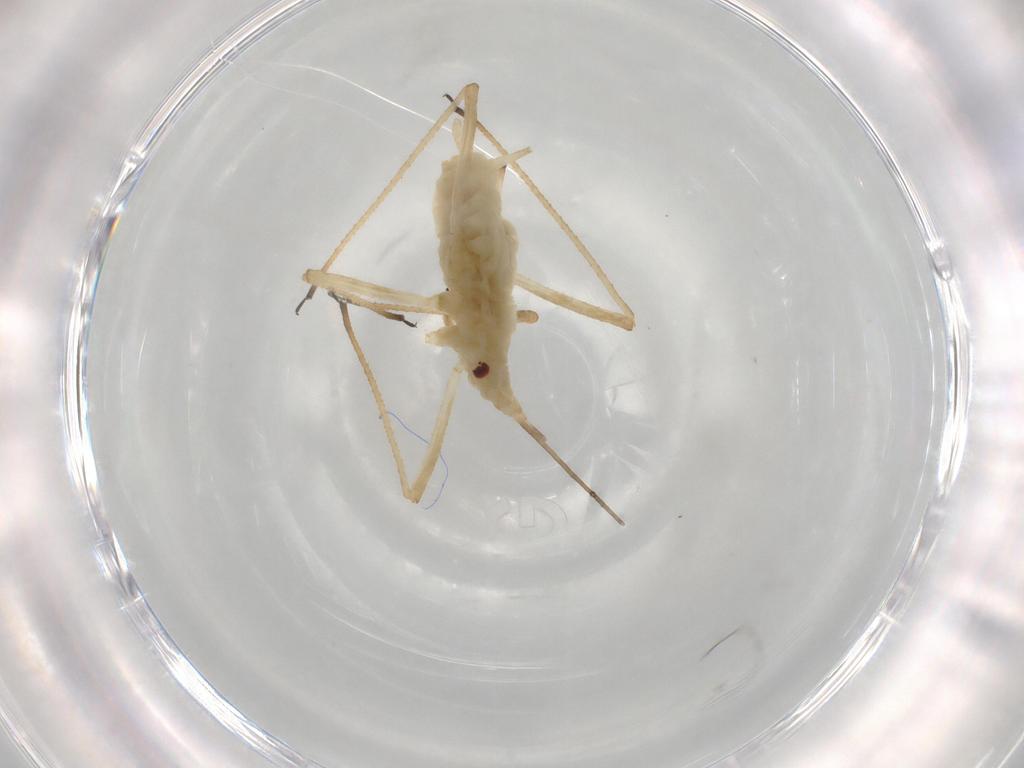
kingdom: Animalia
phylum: Arthropoda
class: Insecta
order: Hemiptera
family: Aphididae
